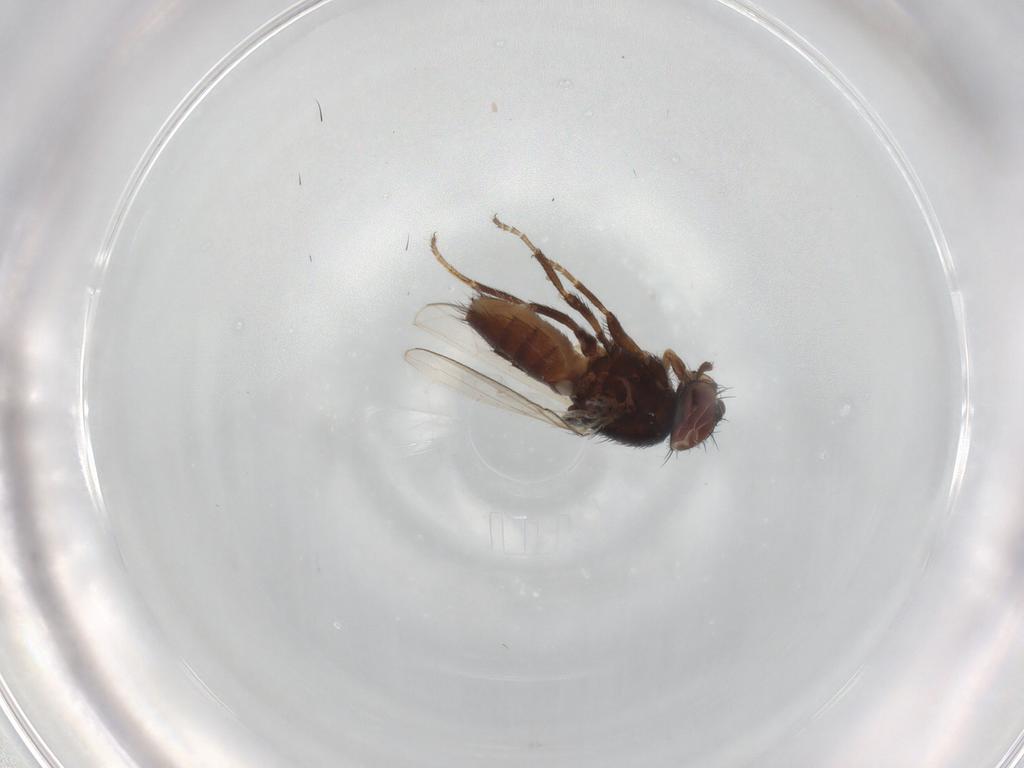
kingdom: Animalia
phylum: Arthropoda
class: Insecta
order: Diptera
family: Milichiidae
